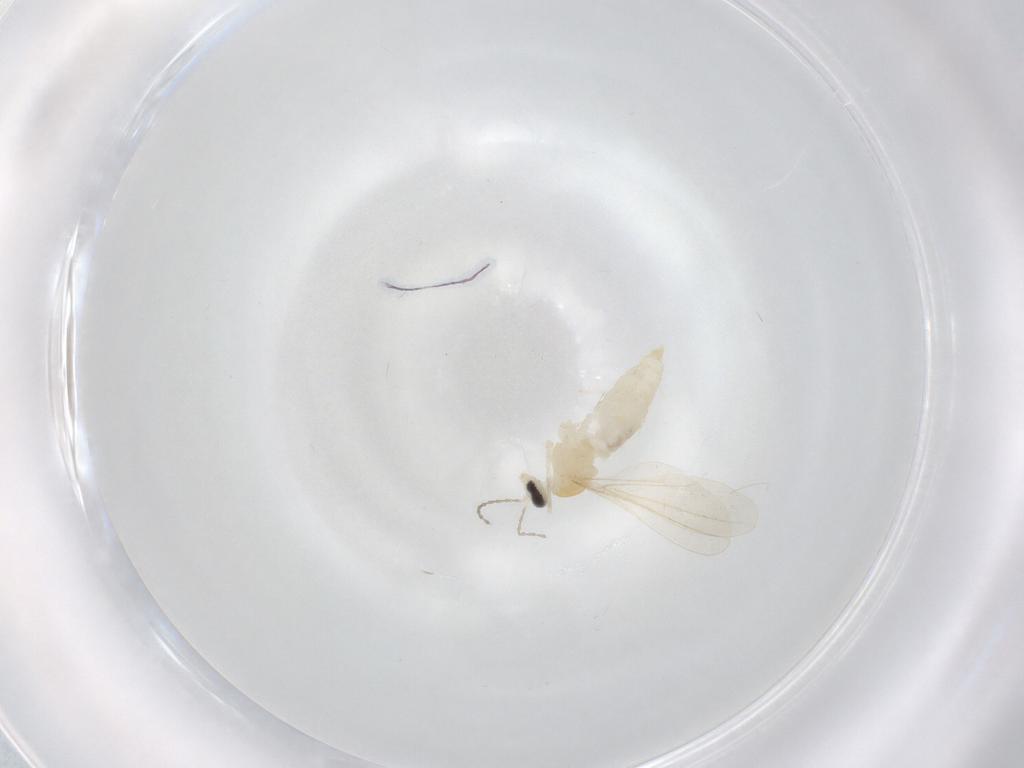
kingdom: Animalia
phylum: Arthropoda
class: Insecta
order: Diptera
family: Cecidomyiidae
